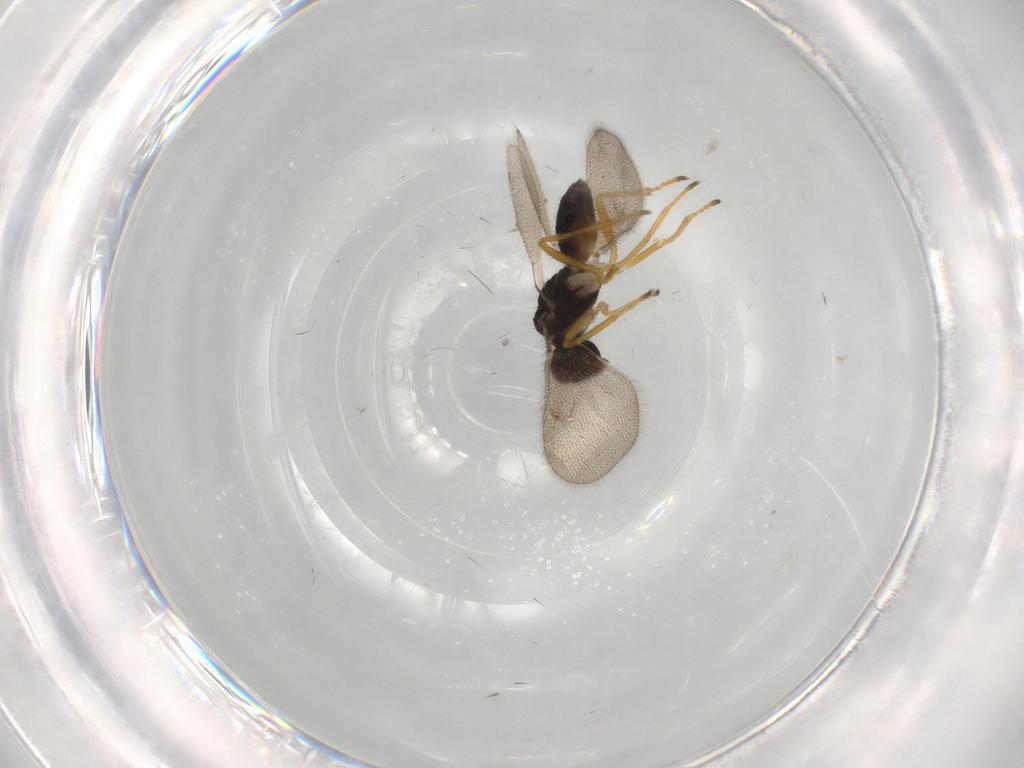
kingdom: Animalia
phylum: Arthropoda
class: Insecta
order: Hymenoptera
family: Eulophidae
